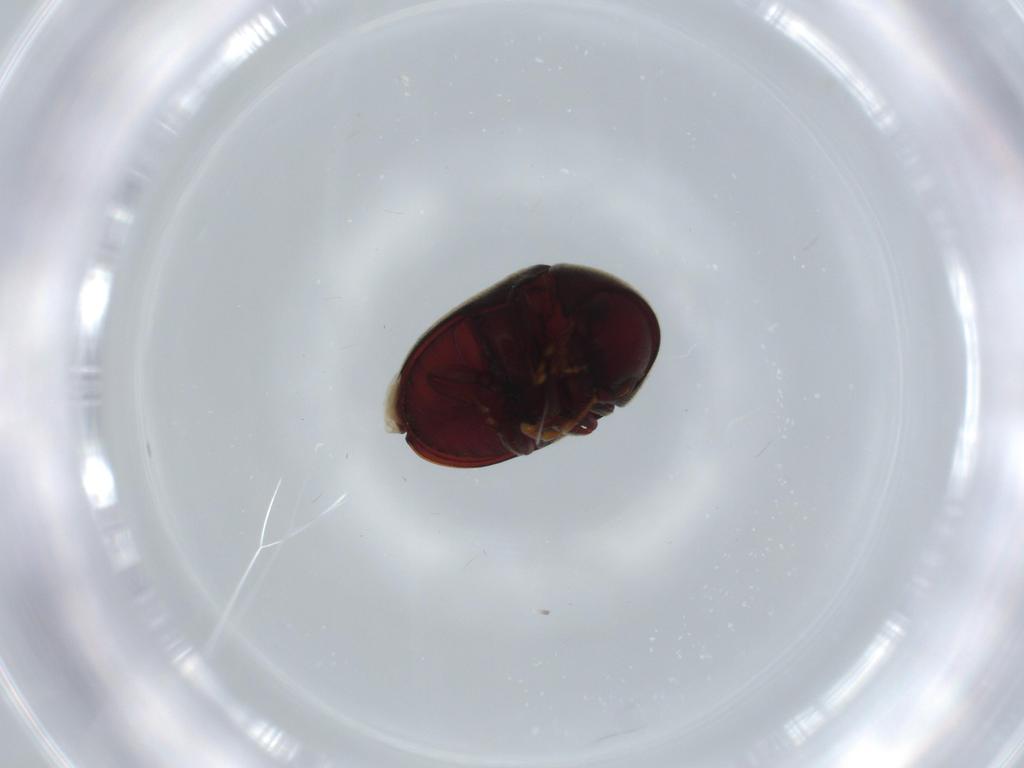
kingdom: Animalia
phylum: Arthropoda
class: Insecta
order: Coleoptera
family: Ptinidae
